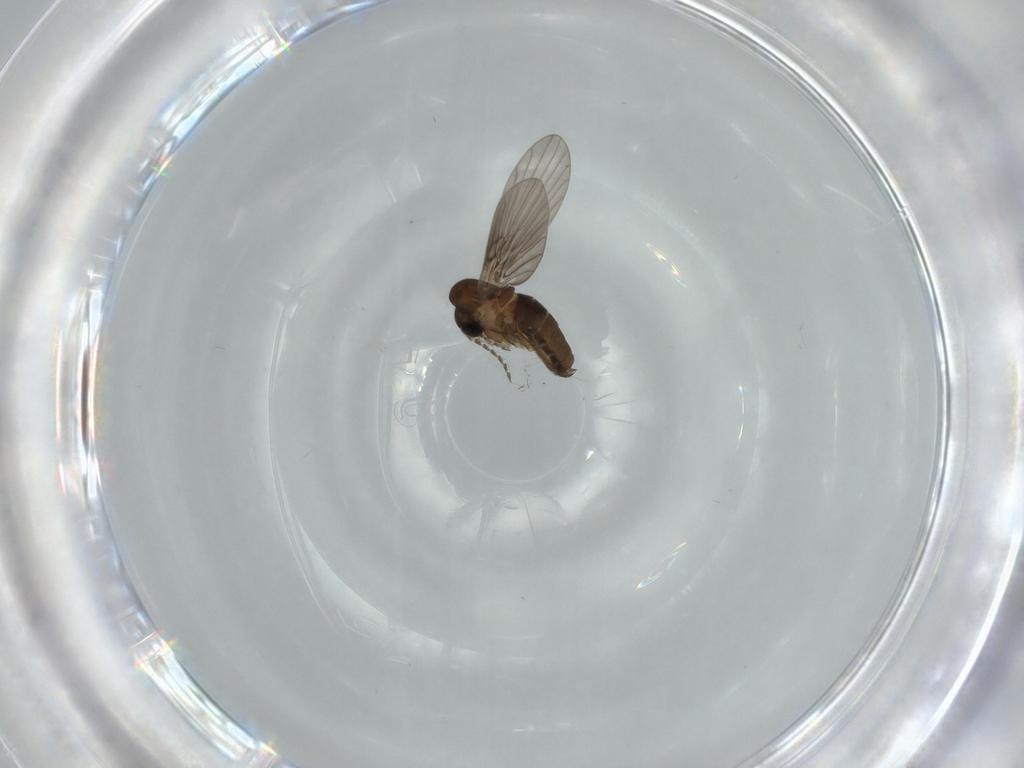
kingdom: Animalia
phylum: Arthropoda
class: Insecta
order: Diptera
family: Psychodidae
